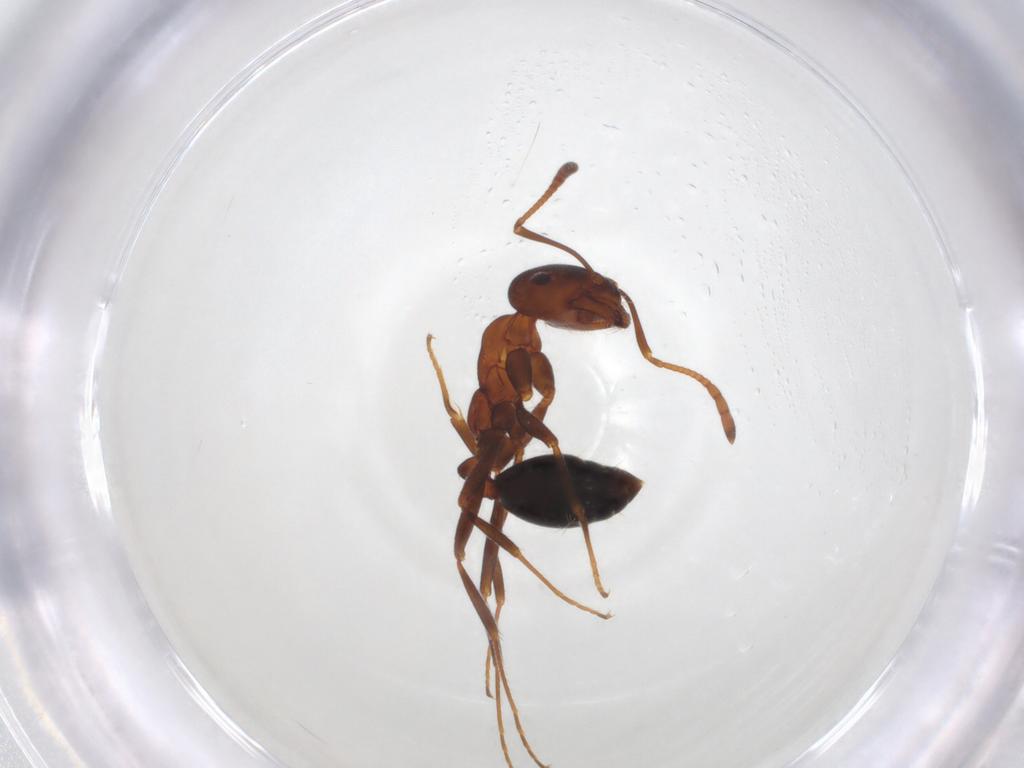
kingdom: Animalia
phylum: Arthropoda
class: Insecta
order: Hymenoptera
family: Formicidae
